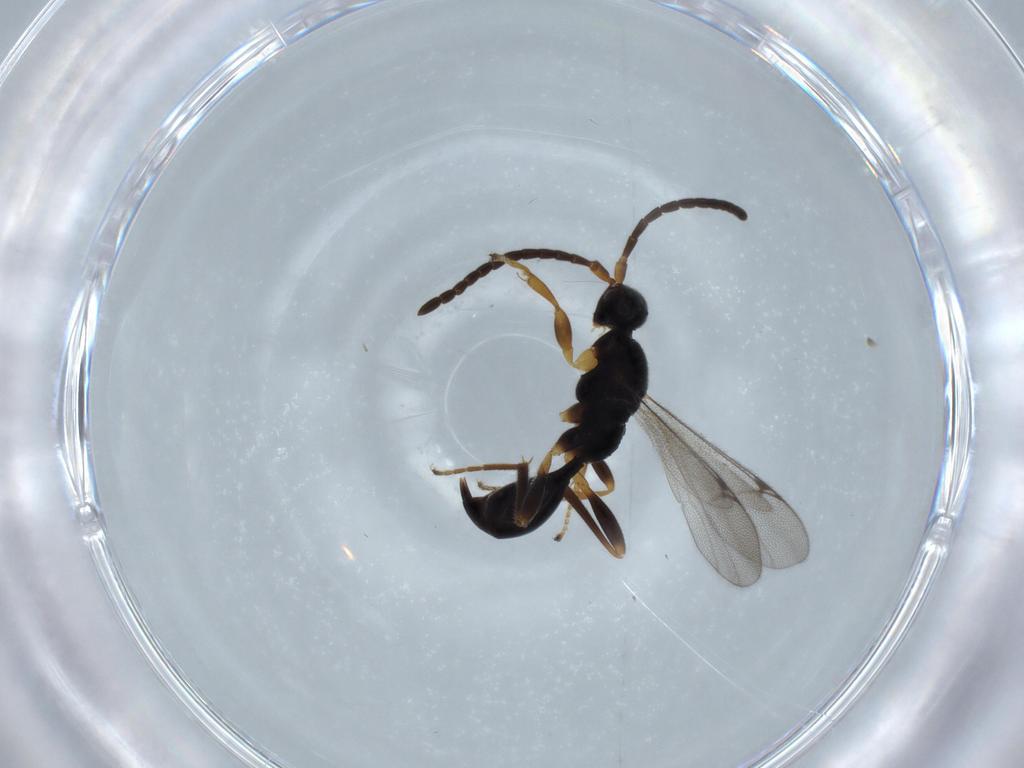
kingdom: Animalia
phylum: Arthropoda
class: Insecta
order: Hymenoptera
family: Proctotrupidae
